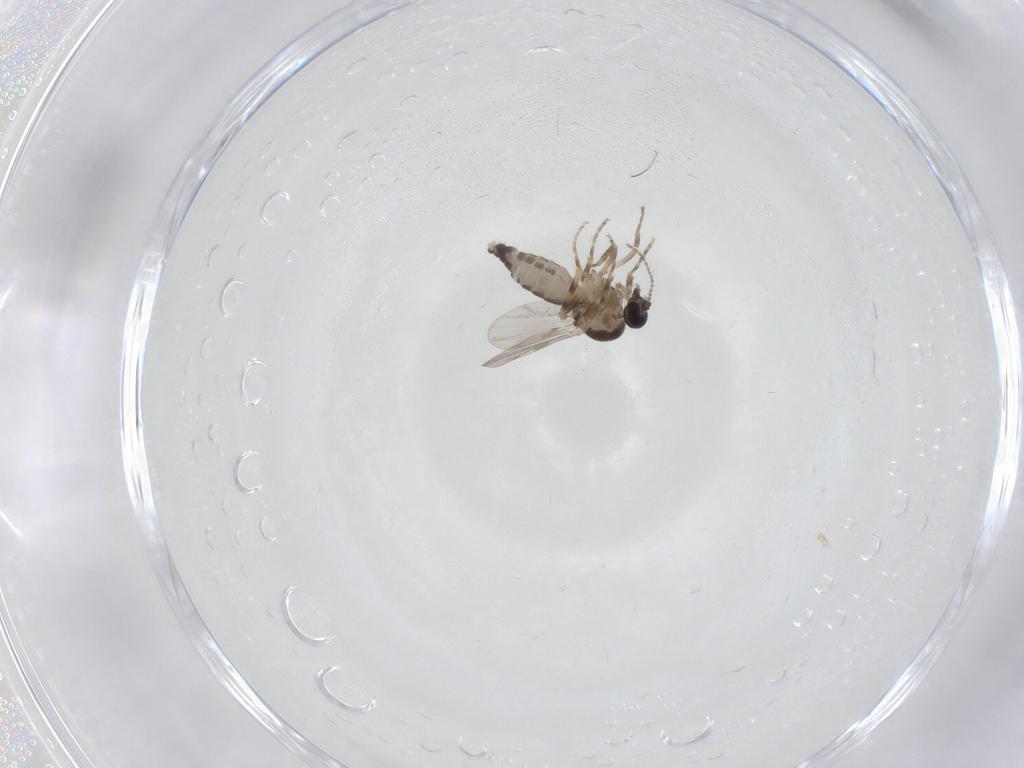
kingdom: Animalia
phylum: Arthropoda
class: Insecta
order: Diptera
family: Ceratopogonidae
